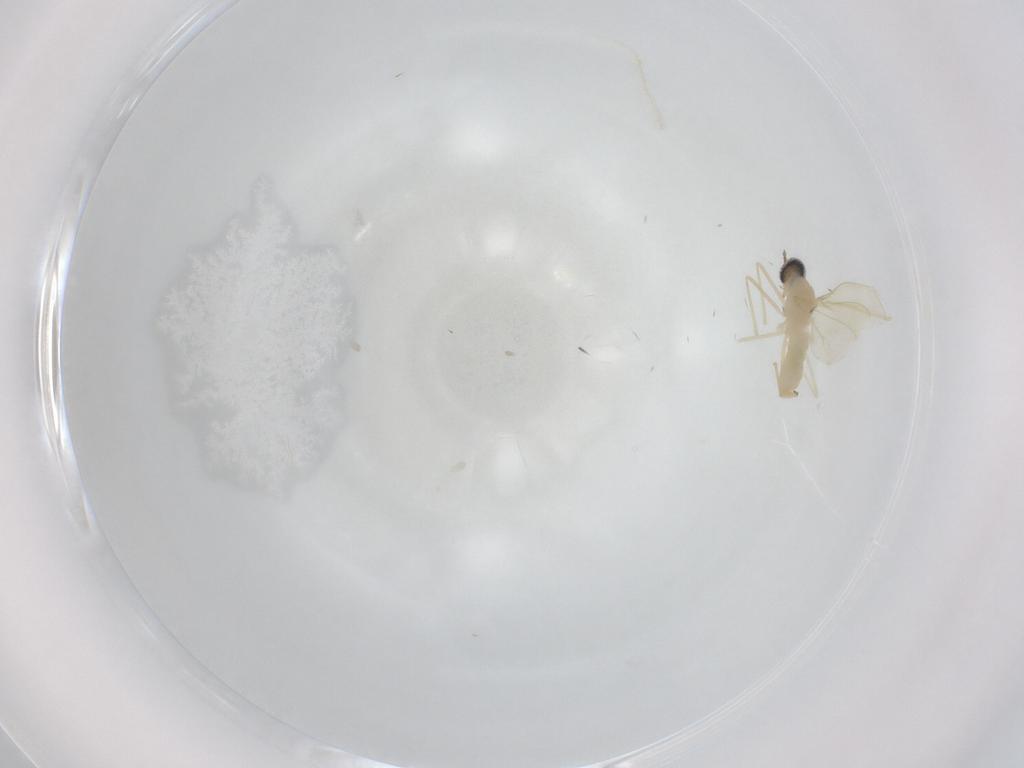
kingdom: Animalia
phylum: Arthropoda
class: Insecta
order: Diptera
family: Cecidomyiidae
